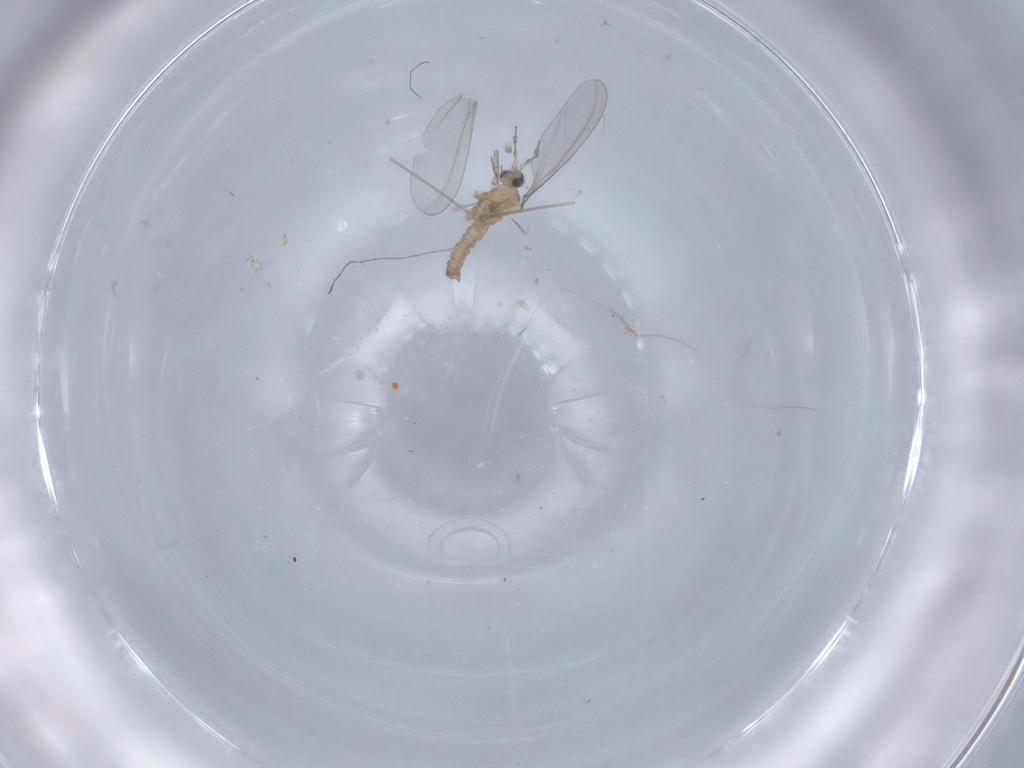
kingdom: Animalia
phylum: Arthropoda
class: Insecta
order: Diptera
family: Cecidomyiidae
